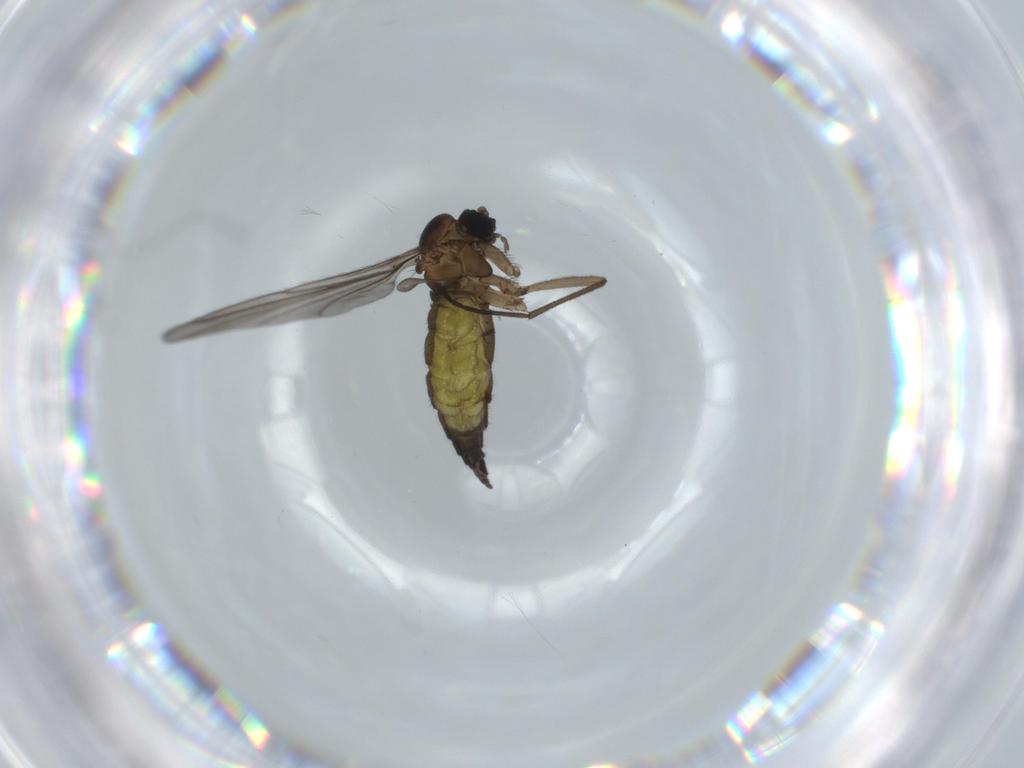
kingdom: Animalia
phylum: Arthropoda
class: Insecta
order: Diptera
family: Sciaridae
